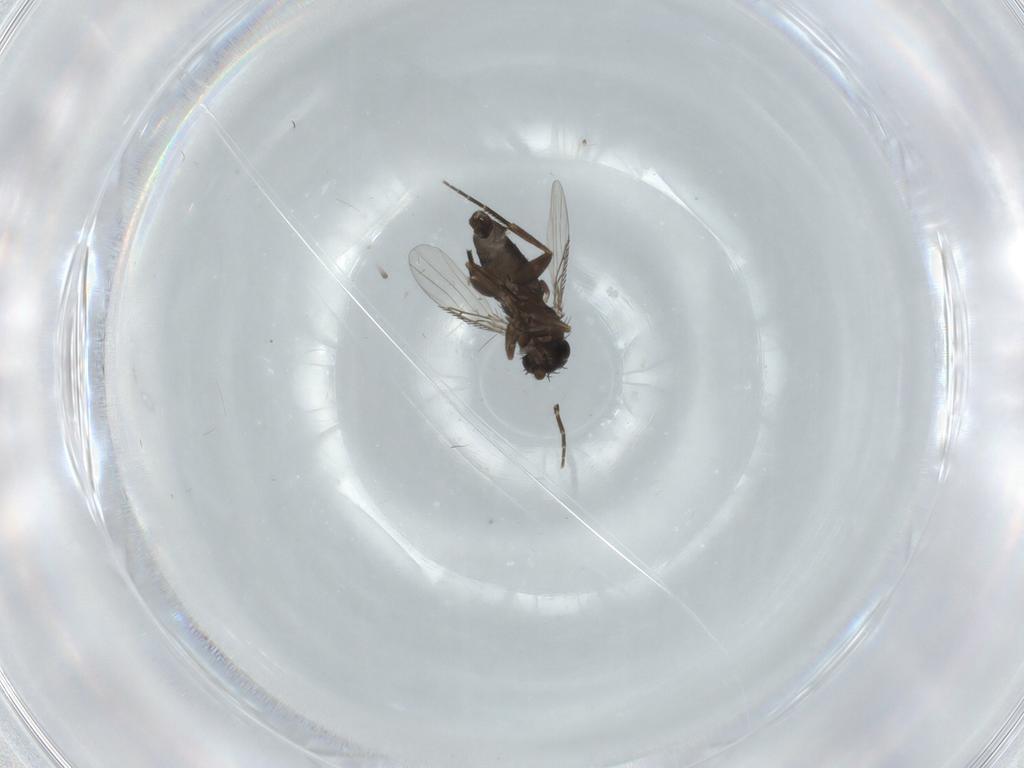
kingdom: Animalia
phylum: Arthropoda
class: Insecta
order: Diptera
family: Phoridae
